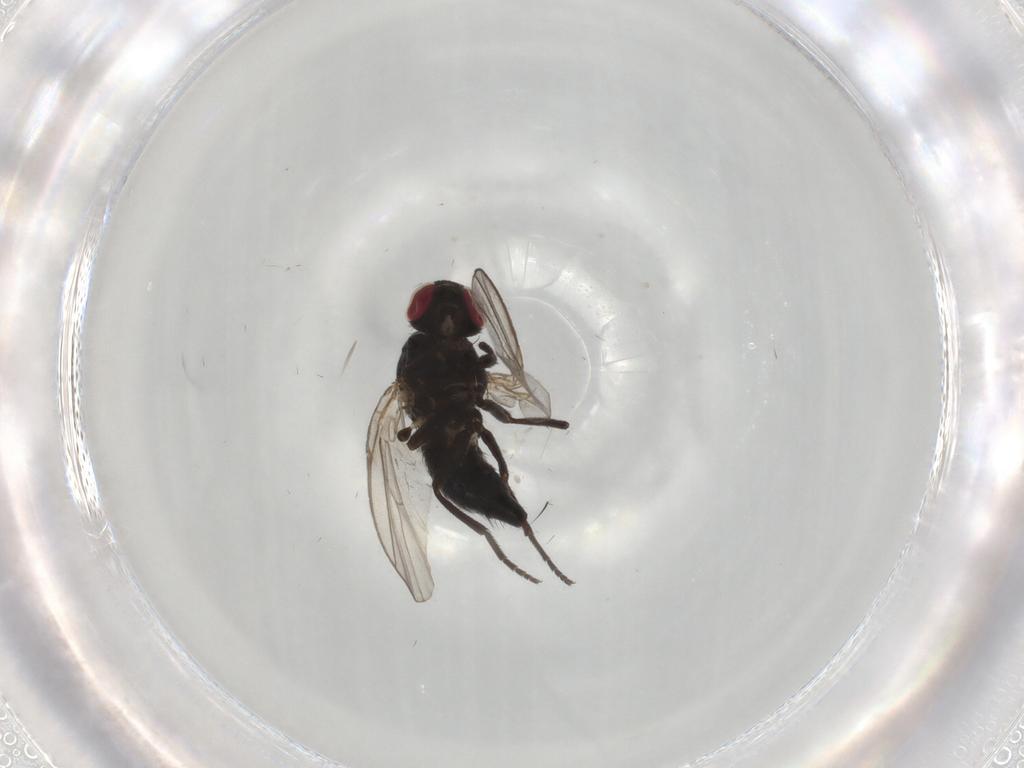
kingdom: Animalia
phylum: Arthropoda
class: Insecta
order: Diptera
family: Agromyzidae
